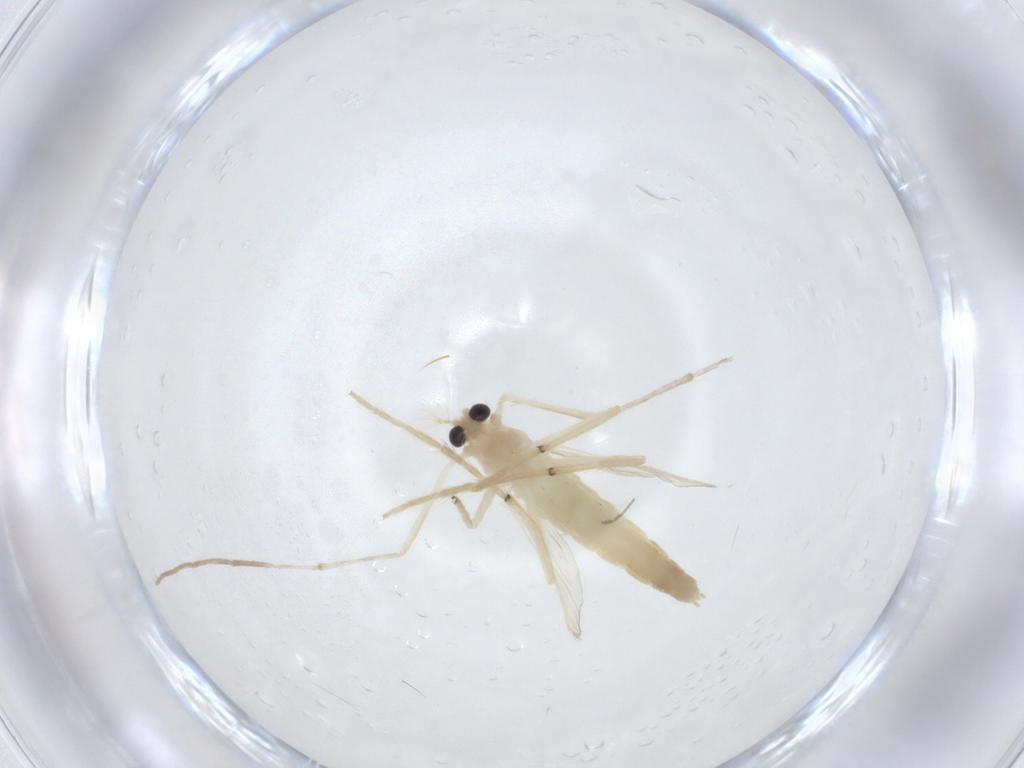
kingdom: Animalia
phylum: Arthropoda
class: Insecta
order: Diptera
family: Chironomidae
